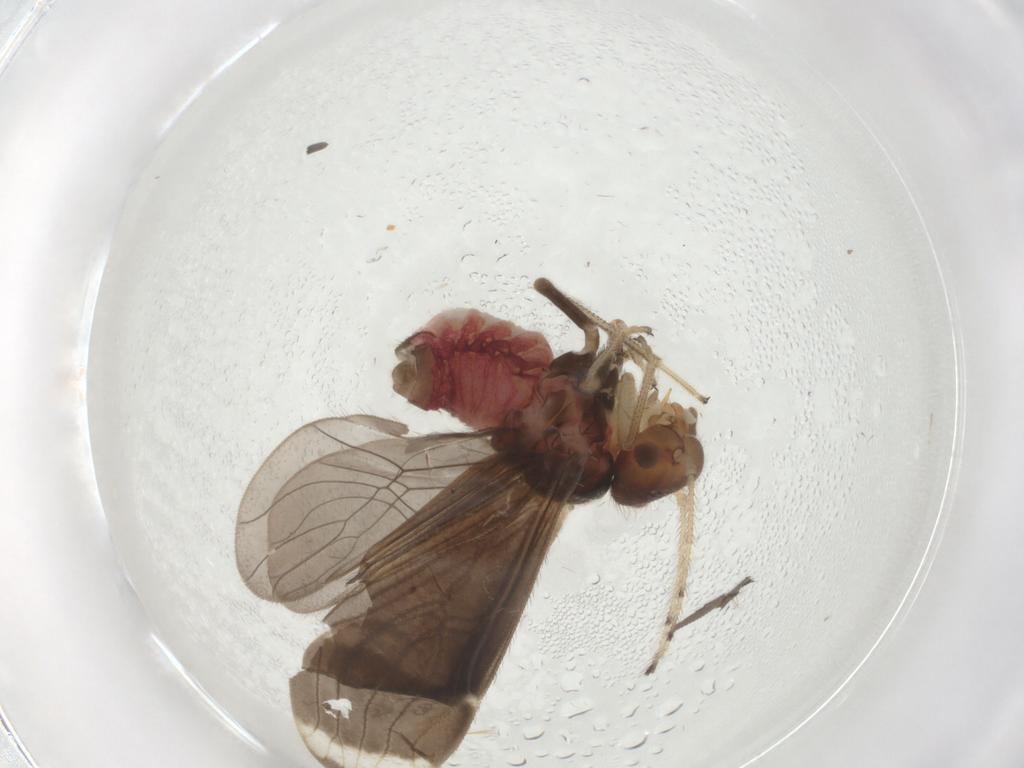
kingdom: Animalia
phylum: Arthropoda
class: Insecta
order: Psocodea
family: Amphipsocidae
